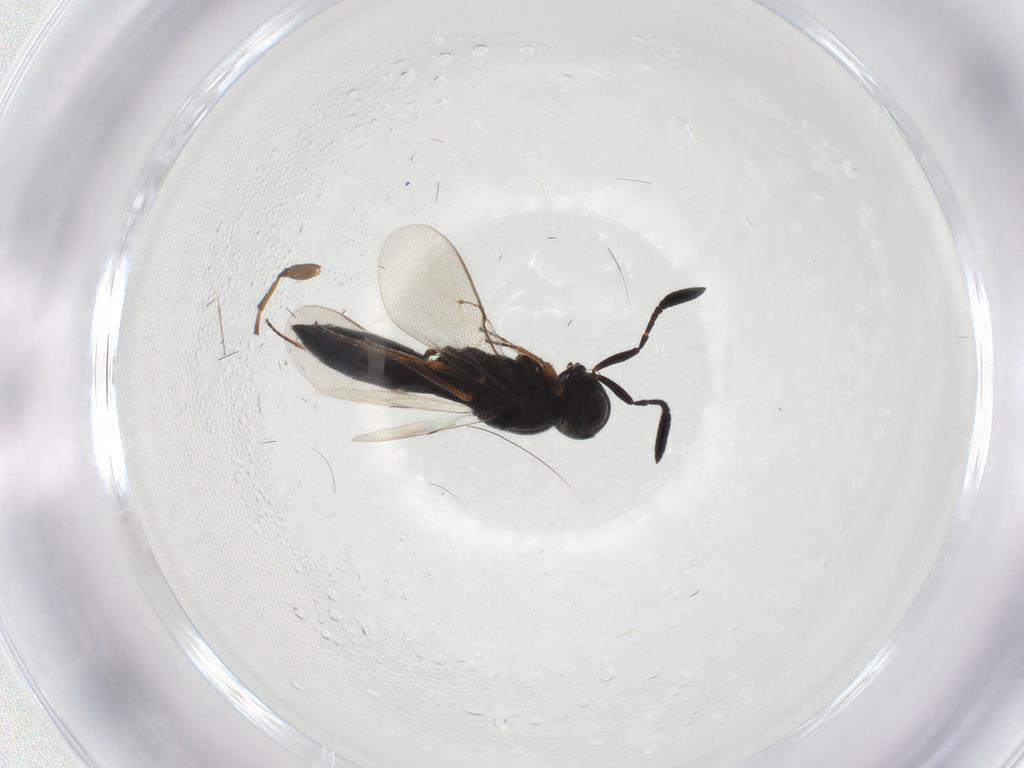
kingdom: Animalia
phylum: Arthropoda
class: Insecta
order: Hymenoptera
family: Scelionidae
